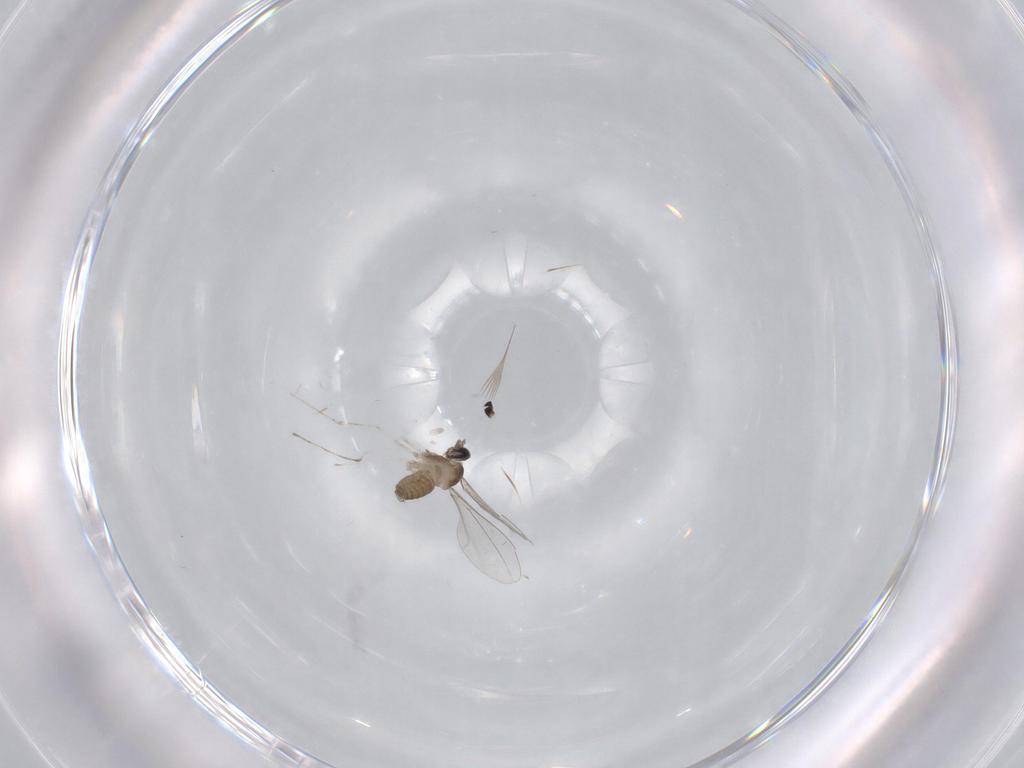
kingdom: Animalia
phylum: Arthropoda
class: Insecta
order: Diptera
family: Cecidomyiidae
